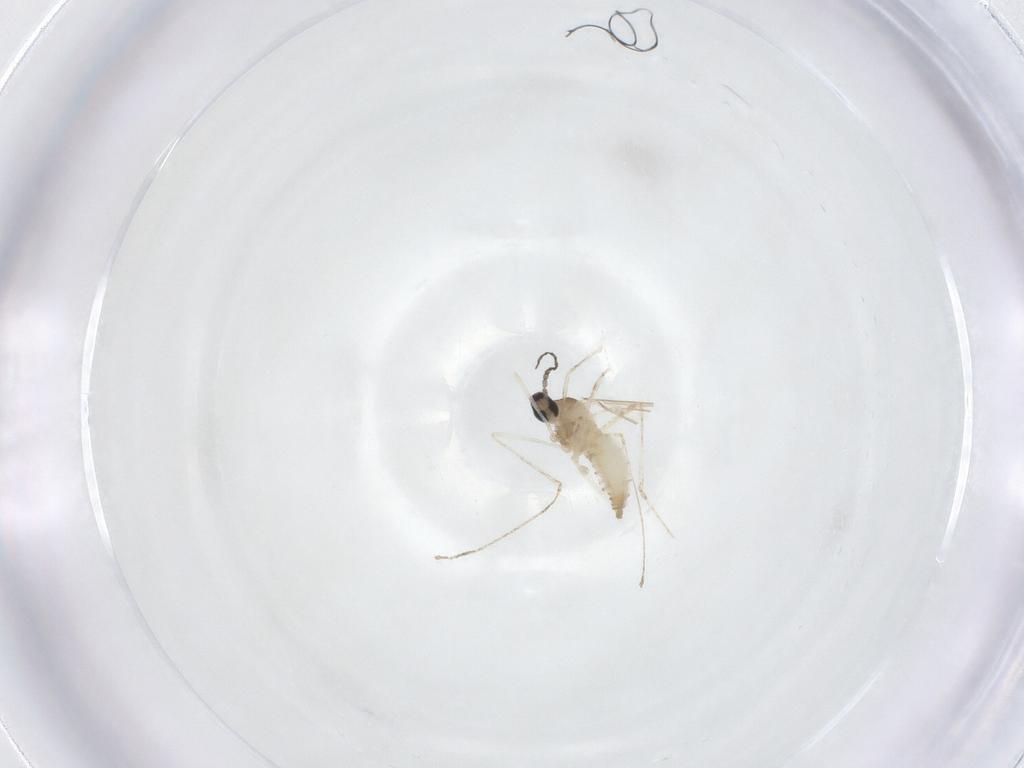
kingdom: Animalia
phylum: Arthropoda
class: Insecta
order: Diptera
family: Cecidomyiidae
